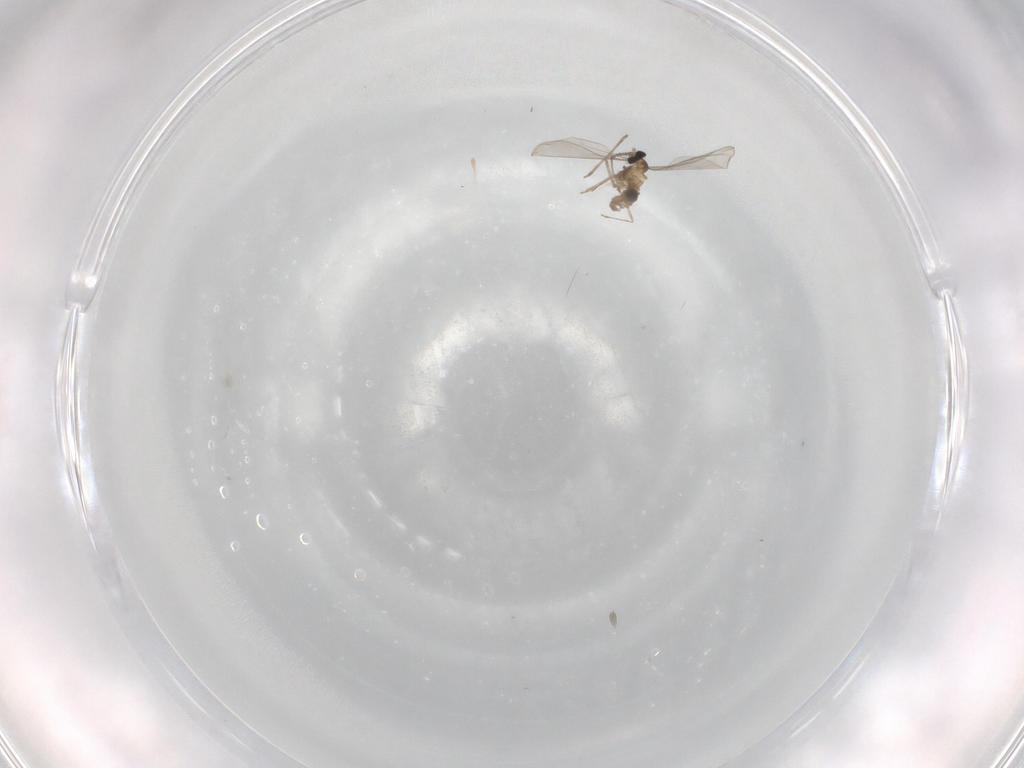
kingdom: Animalia
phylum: Arthropoda
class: Insecta
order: Diptera
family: Cecidomyiidae
